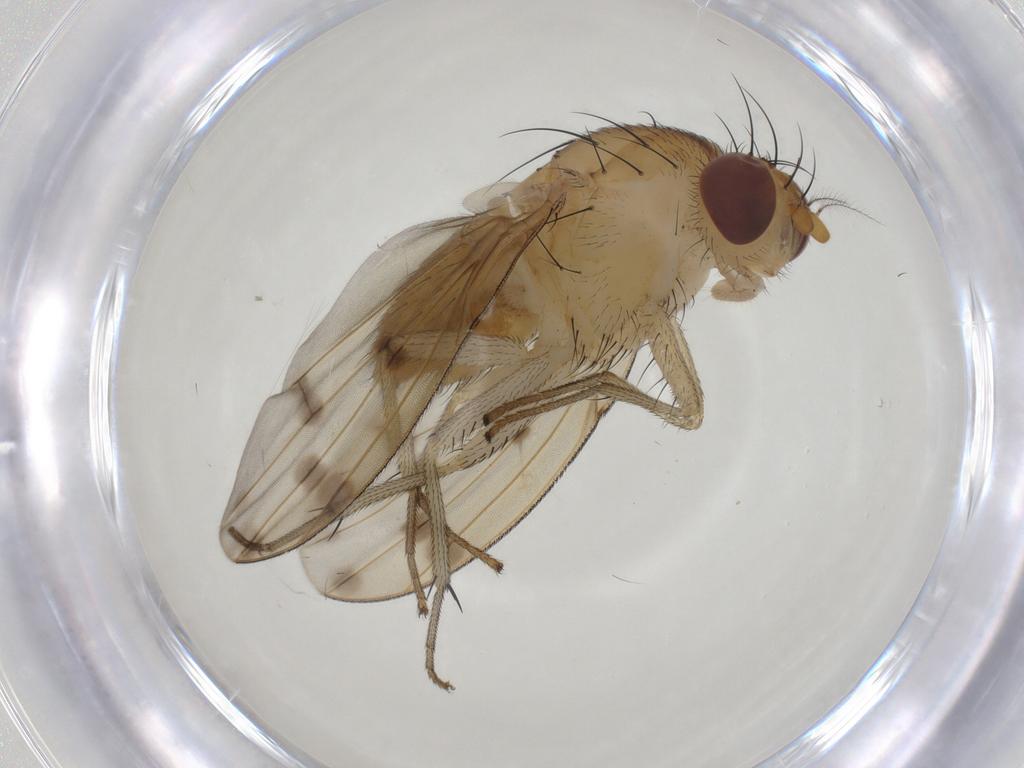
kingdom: Animalia
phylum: Arthropoda
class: Insecta
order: Diptera
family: Lauxaniidae
